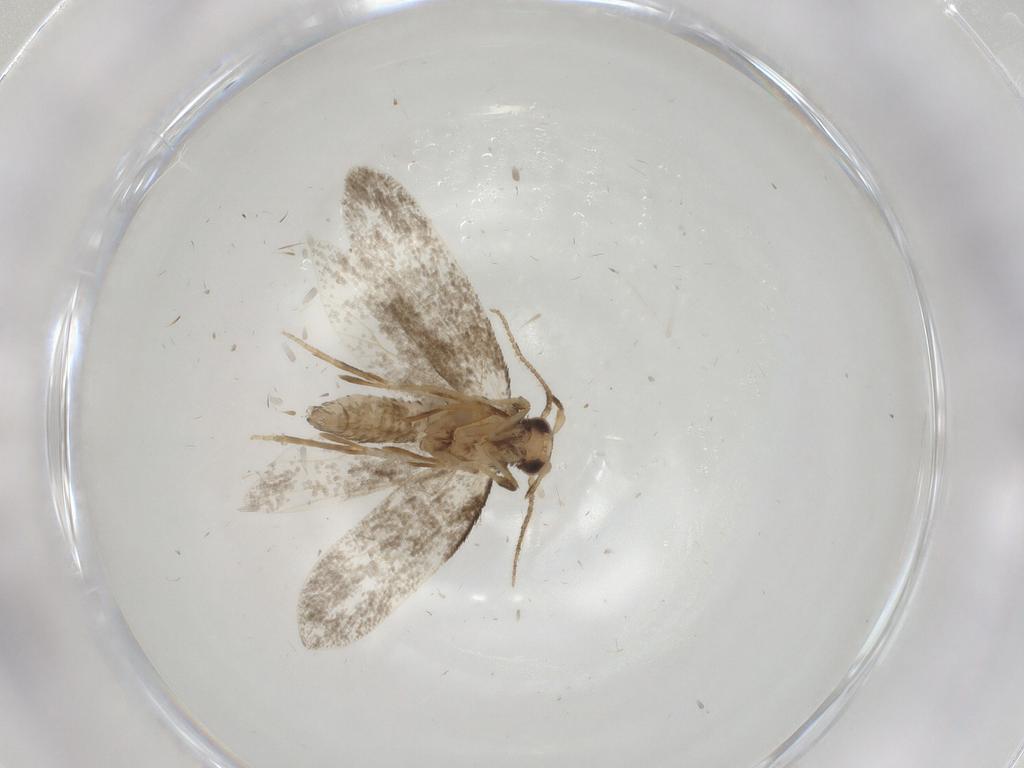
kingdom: Animalia
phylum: Arthropoda
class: Insecta
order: Lepidoptera
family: Psychidae
